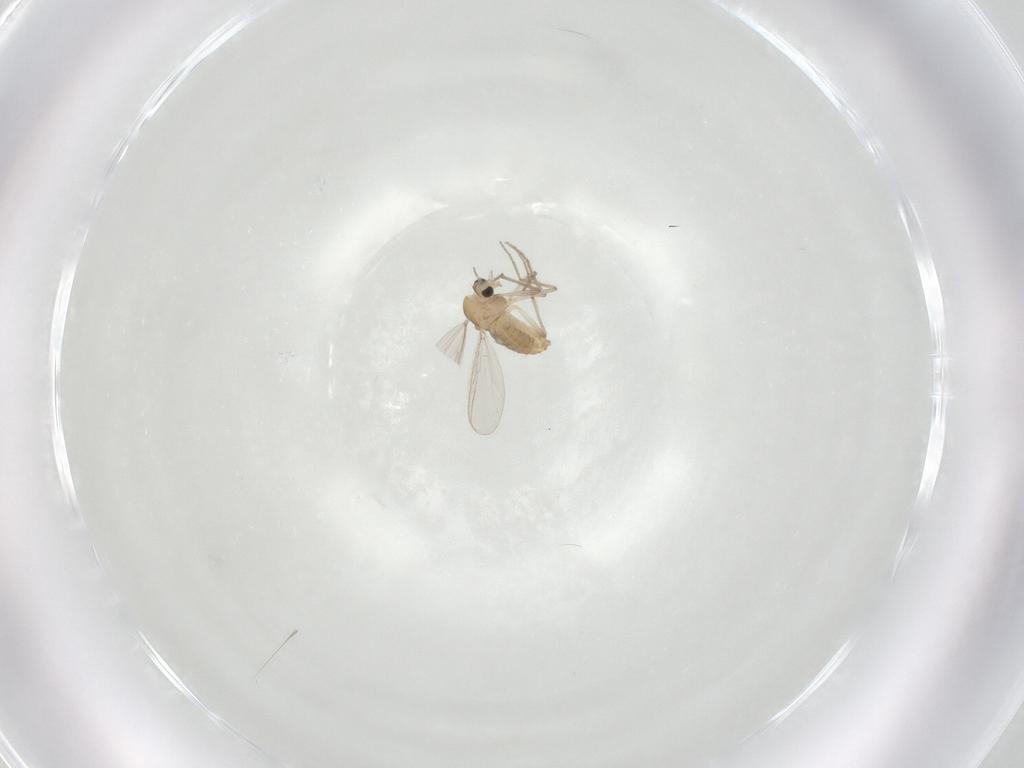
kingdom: Animalia
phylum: Arthropoda
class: Insecta
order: Diptera
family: Chironomidae
